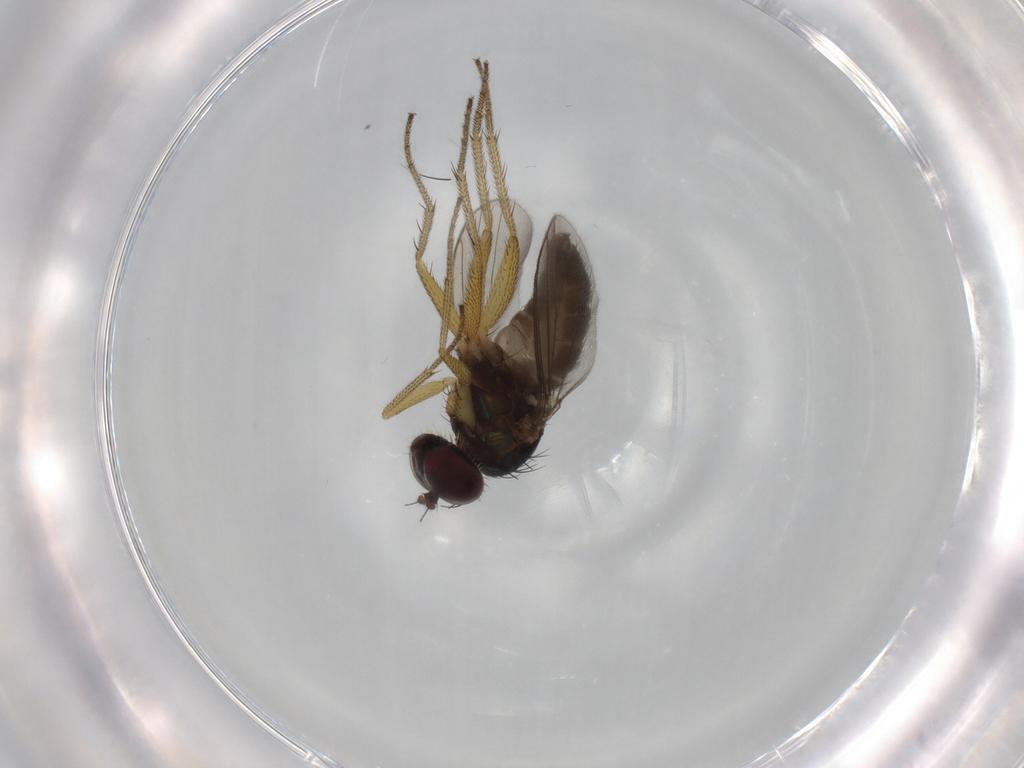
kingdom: Animalia
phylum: Arthropoda
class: Insecta
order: Diptera
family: Dolichopodidae
